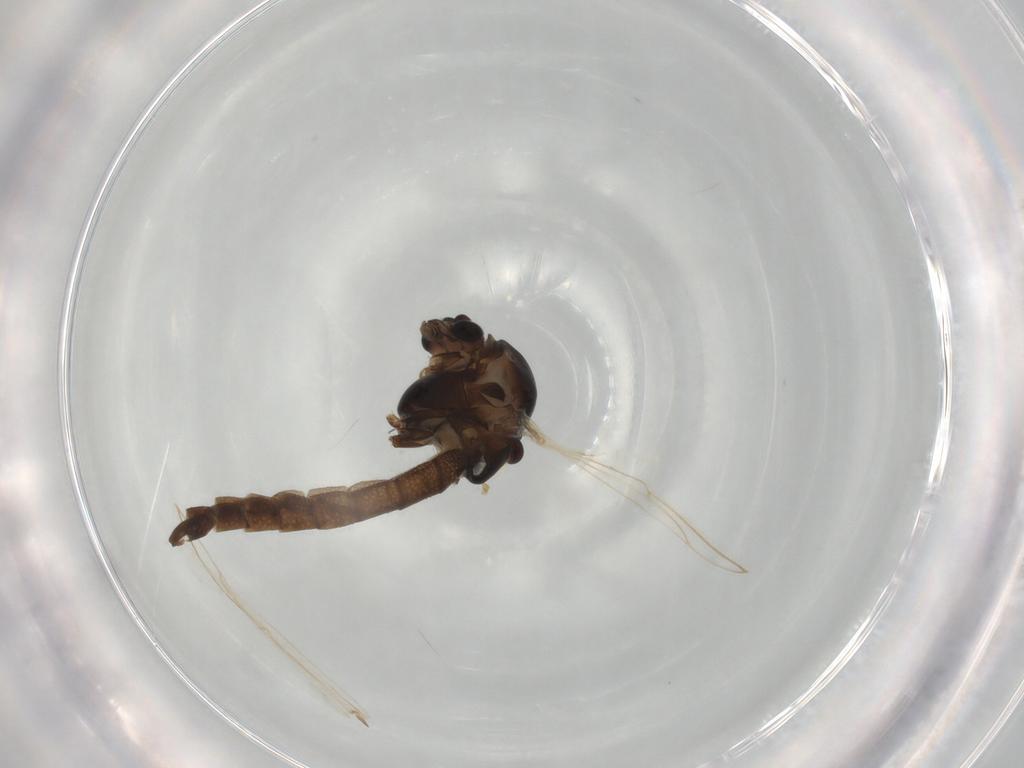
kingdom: Animalia
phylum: Arthropoda
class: Insecta
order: Diptera
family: Chironomidae
